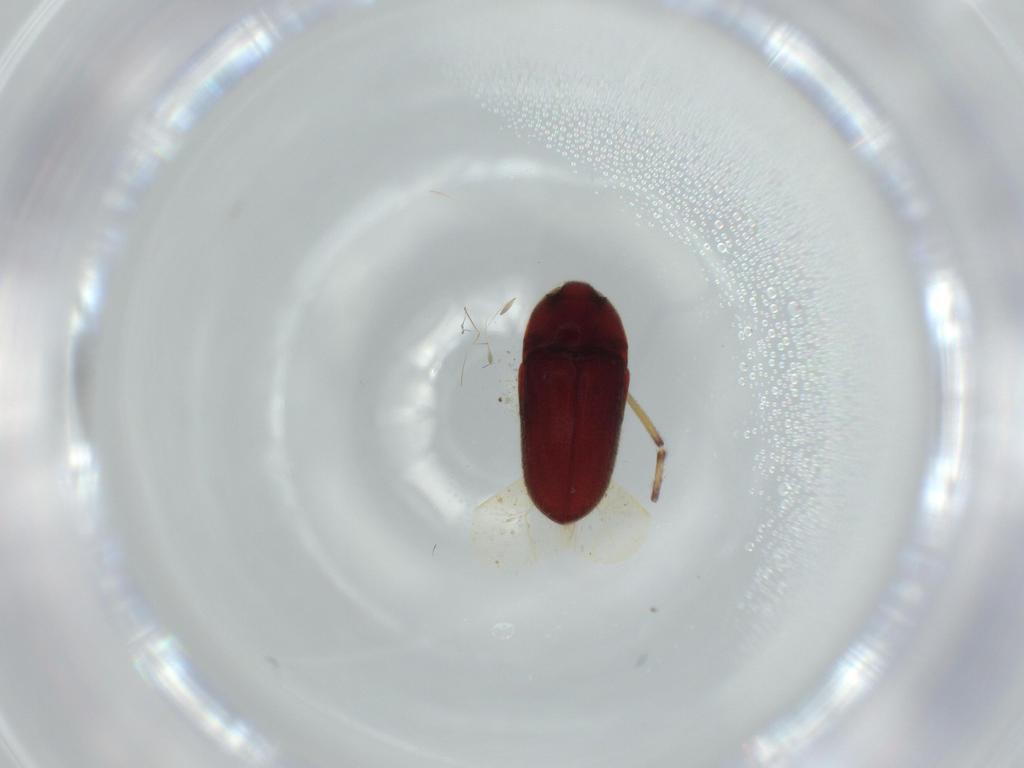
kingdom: Animalia
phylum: Arthropoda
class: Insecta
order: Coleoptera
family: Throscidae
